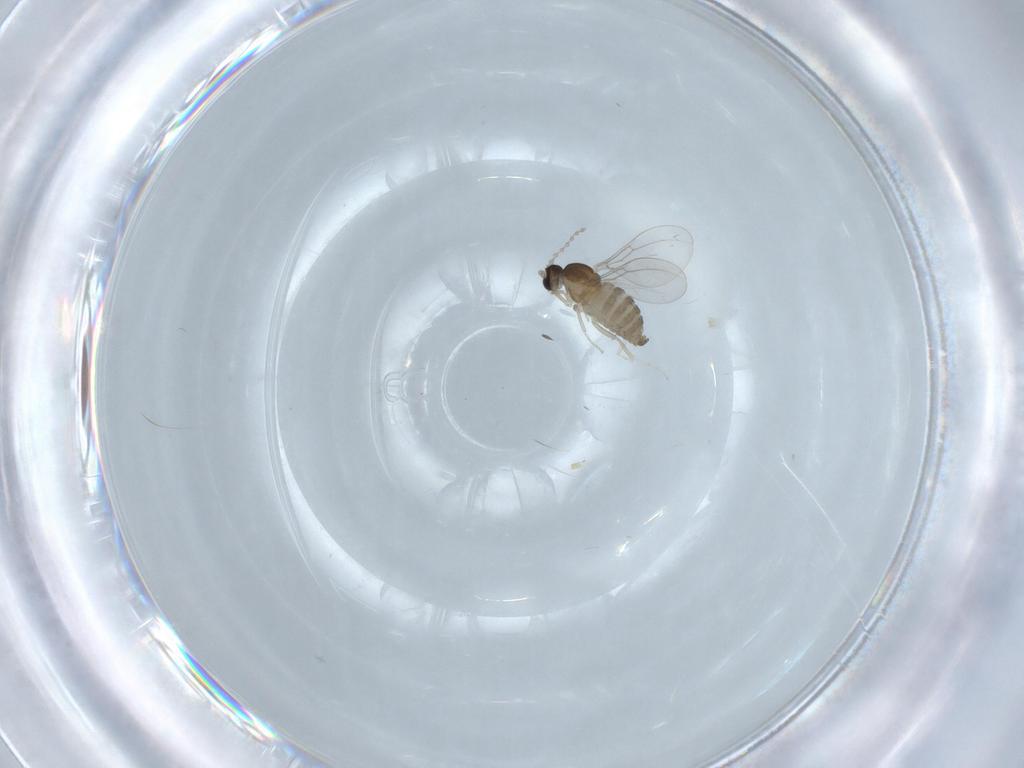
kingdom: Animalia
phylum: Arthropoda
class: Insecta
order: Diptera
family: Cecidomyiidae
